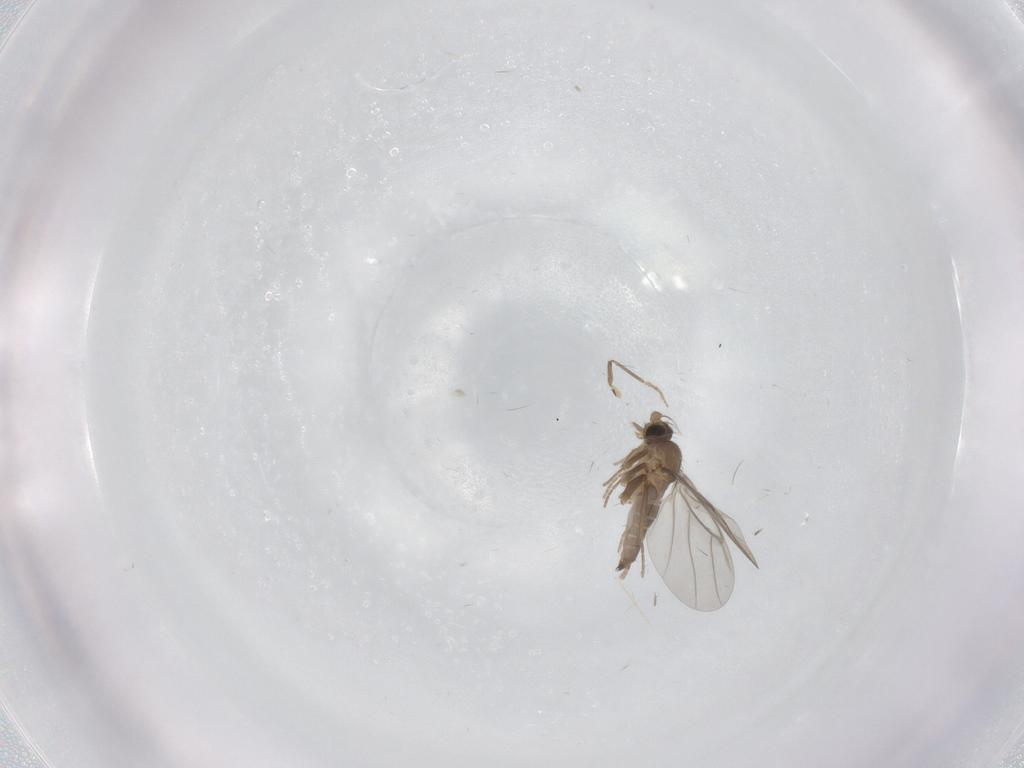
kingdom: Animalia
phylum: Arthropoda
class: Insecta
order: Diptera
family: Chironomidae
